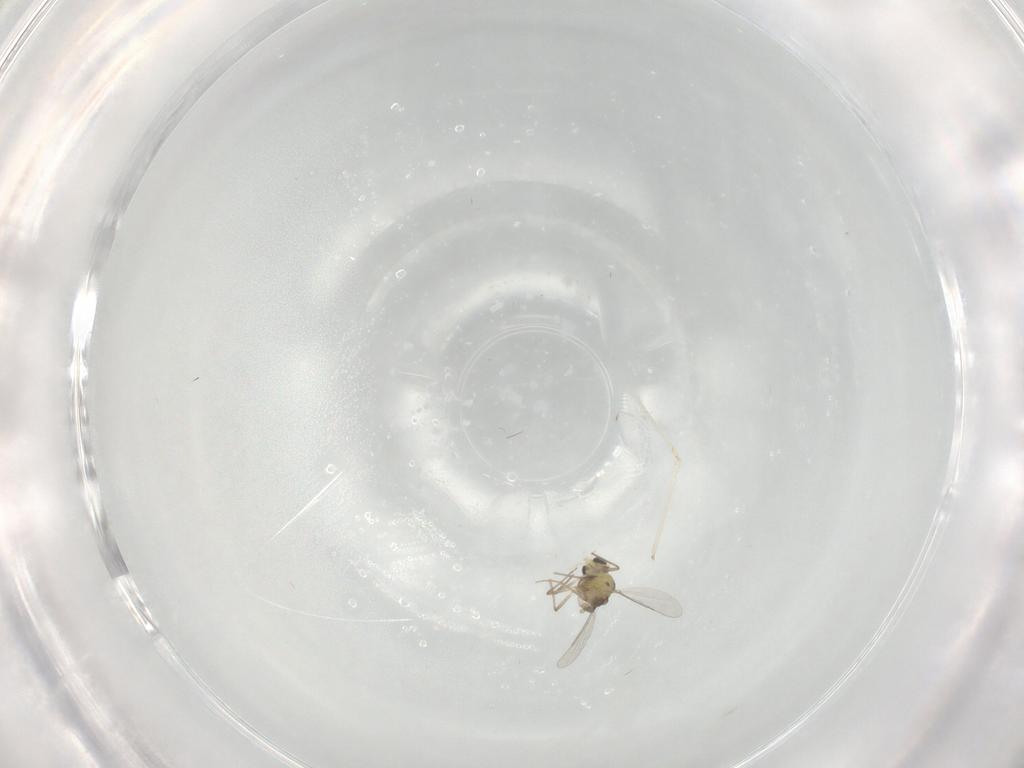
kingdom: Animalia
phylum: Arthropoda
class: Insecta
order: Diptera
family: Chironomidae
